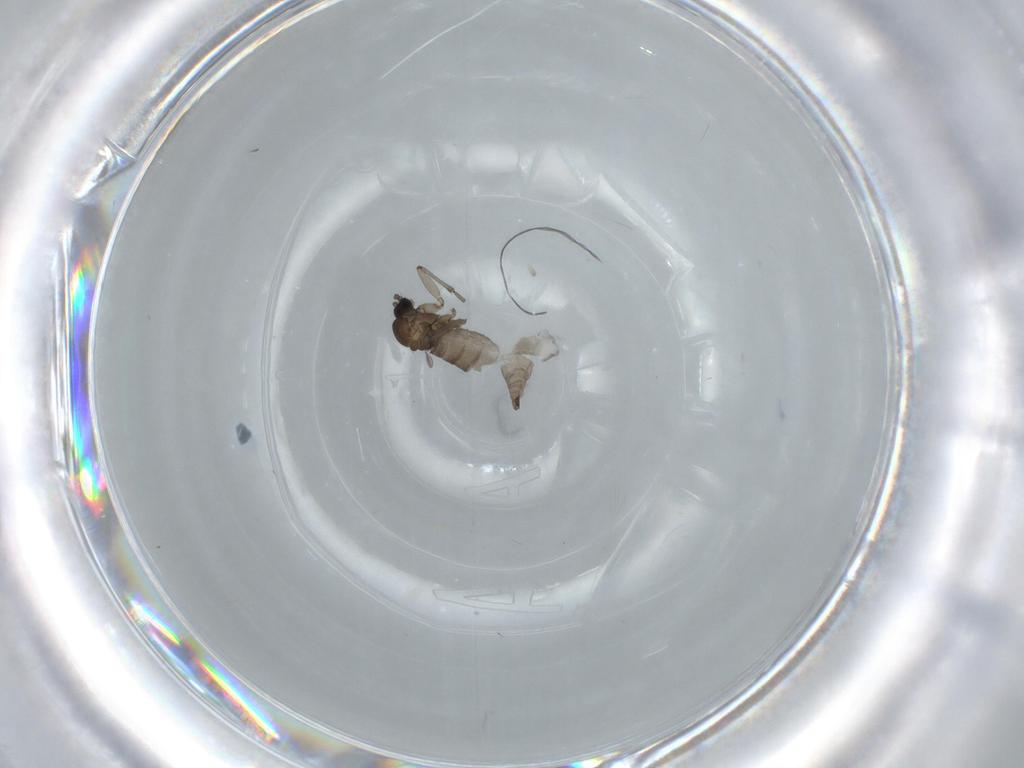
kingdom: Animalia
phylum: Arthropoda
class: Insecta
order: Diptera
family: Sciaridae
